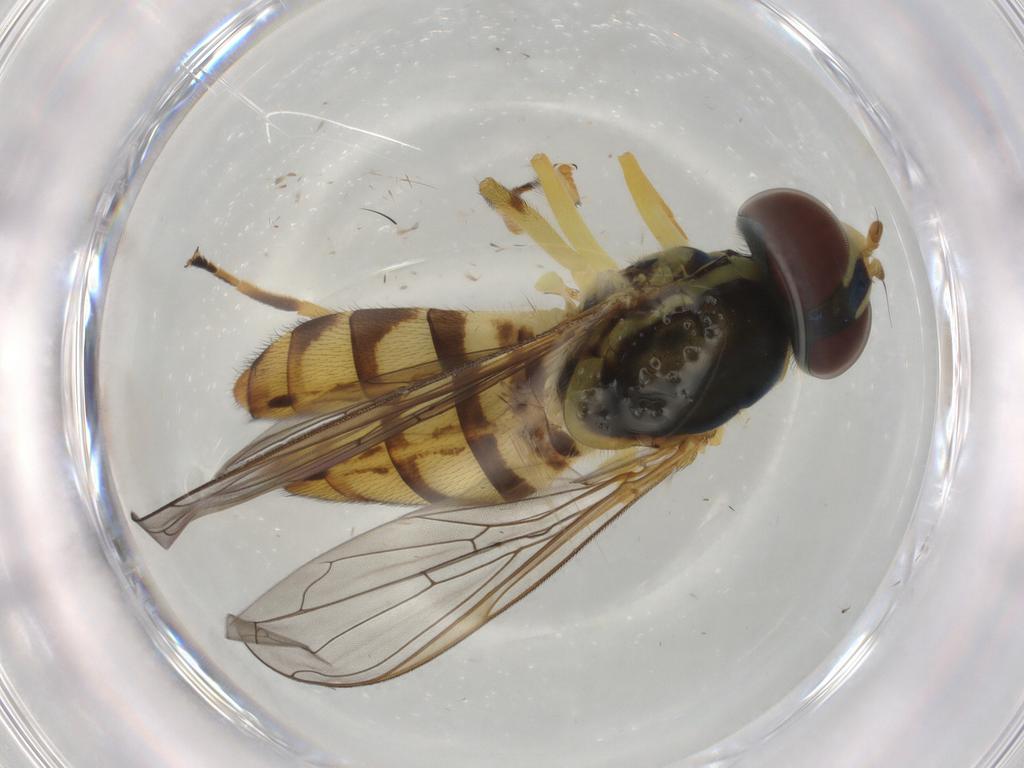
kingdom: Animalia
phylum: Arthropoda
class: Insecta
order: Diptera
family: Syrphidae
